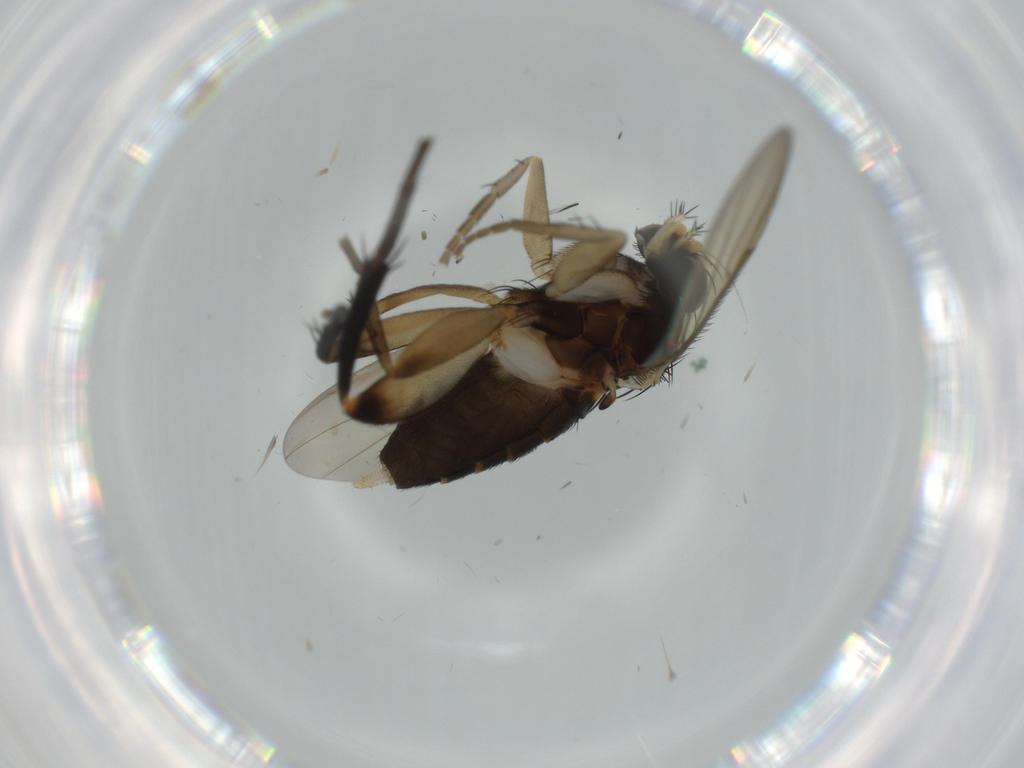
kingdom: Animalia
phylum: Arthropoda
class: Insecta
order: Diptera
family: Phoridae
